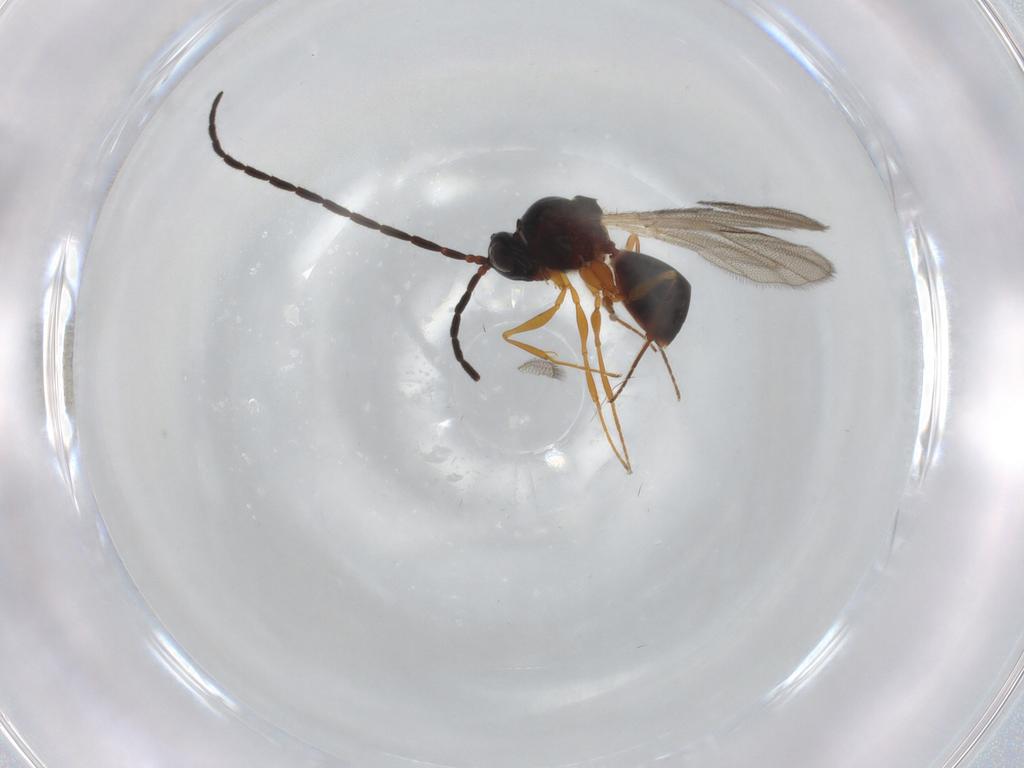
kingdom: Animalia
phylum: Arthropoda
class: Insecta
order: Hymenoptera
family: Figitidae
